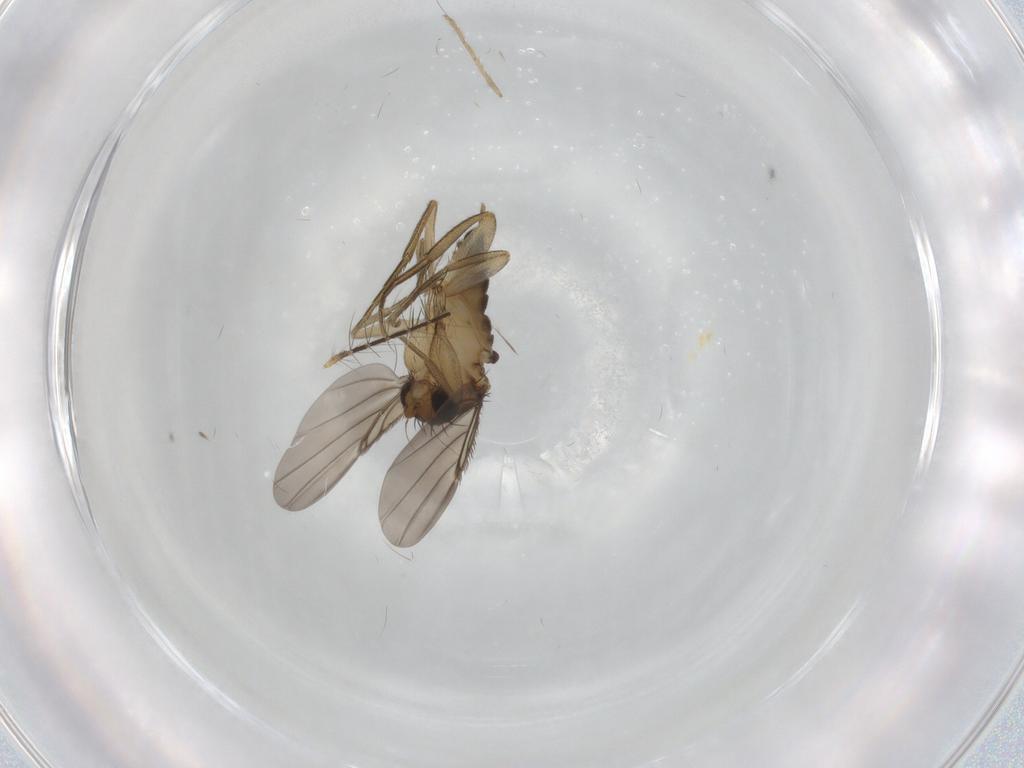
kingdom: Animalia
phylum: Arthropoda
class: Insecta
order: Diptera
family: Phoridae
